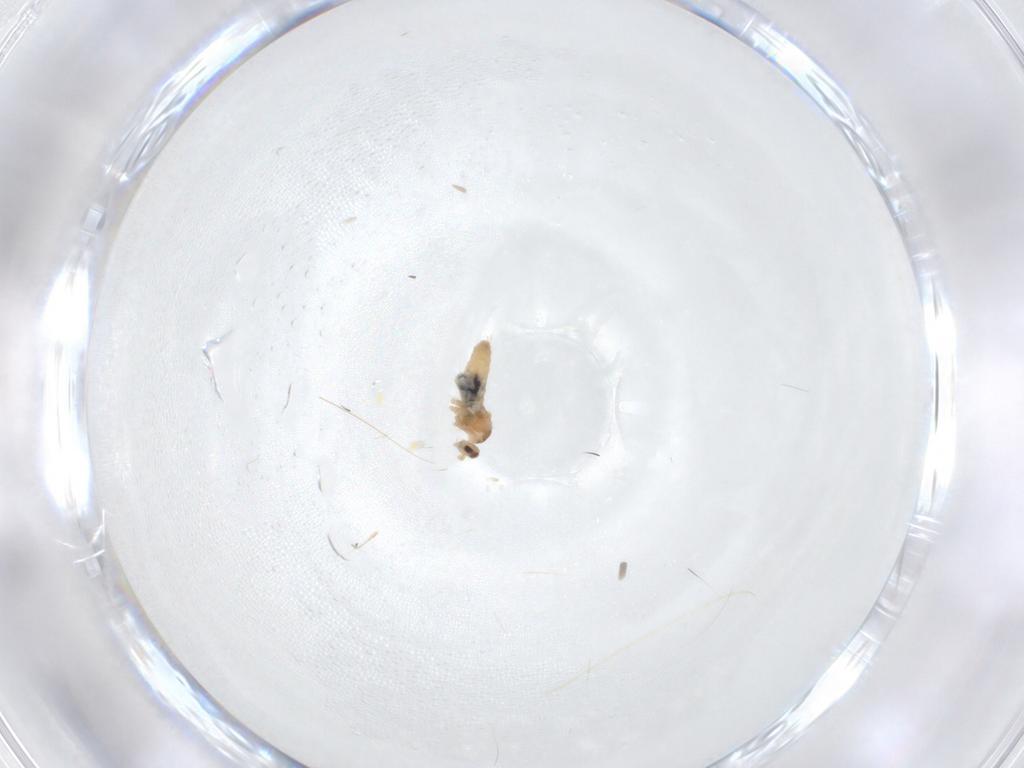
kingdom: Animalia
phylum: Arthropoda
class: Insecta
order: Diptera
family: Cecidomyiidae
